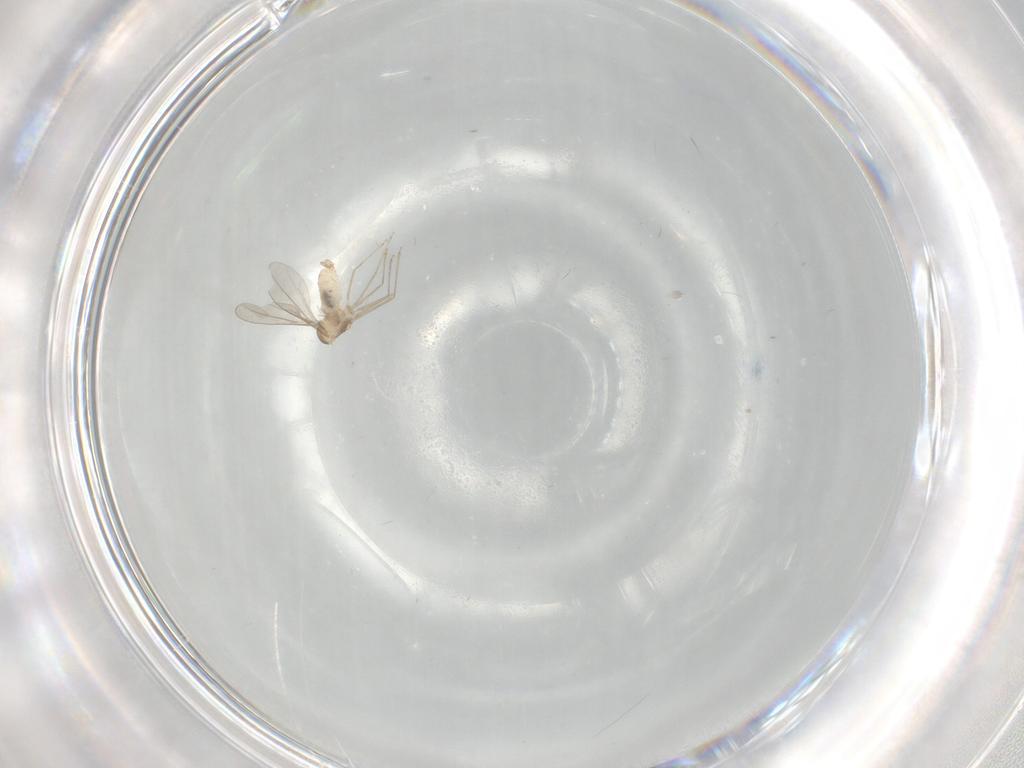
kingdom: Animalia
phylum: Arthropoda
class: Insecta
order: Diptera
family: Cecidomyiidae
